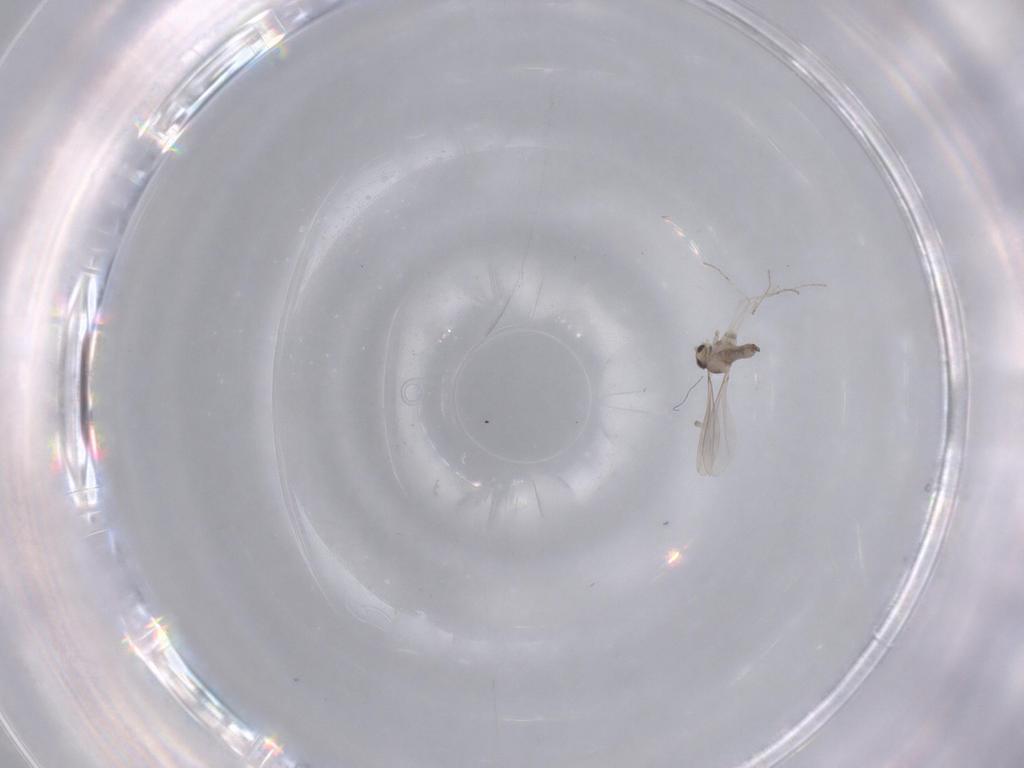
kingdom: Animalia
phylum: Arthropoda
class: Insecta
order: Diptera
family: Cecidomyiidae
